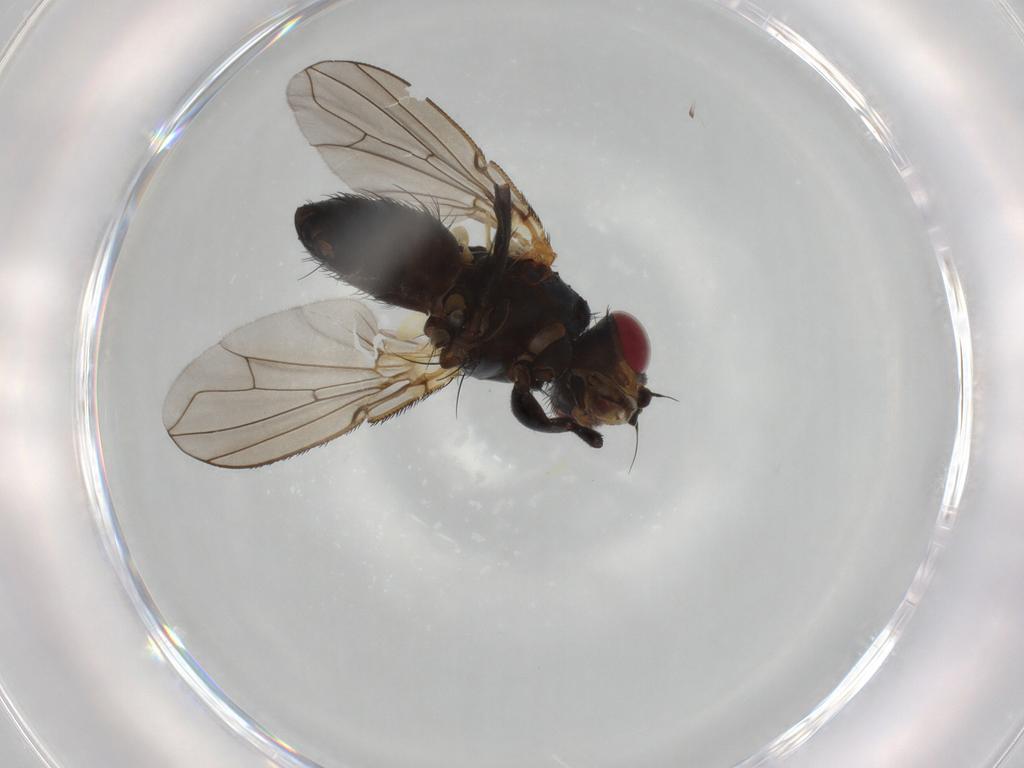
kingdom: Animalia
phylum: Arthropoda
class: Insecta
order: Diptera
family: Calliphoridae
